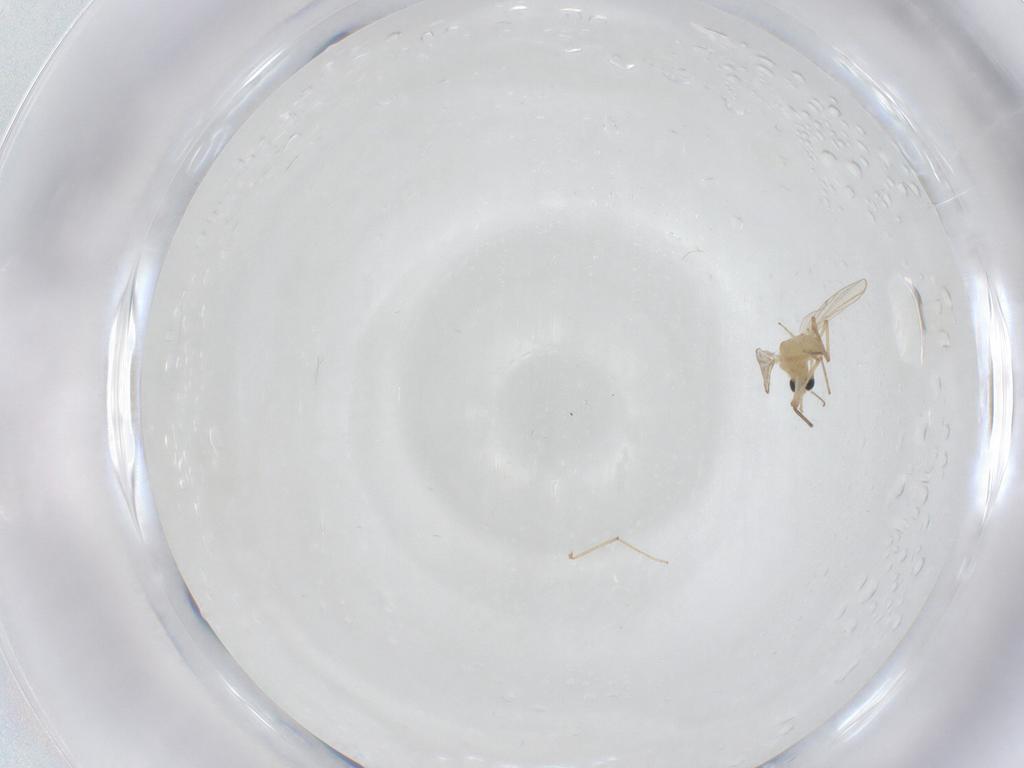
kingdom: Animalia
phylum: Arthropoda
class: Insecta
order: Diptera
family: Chironomidae
